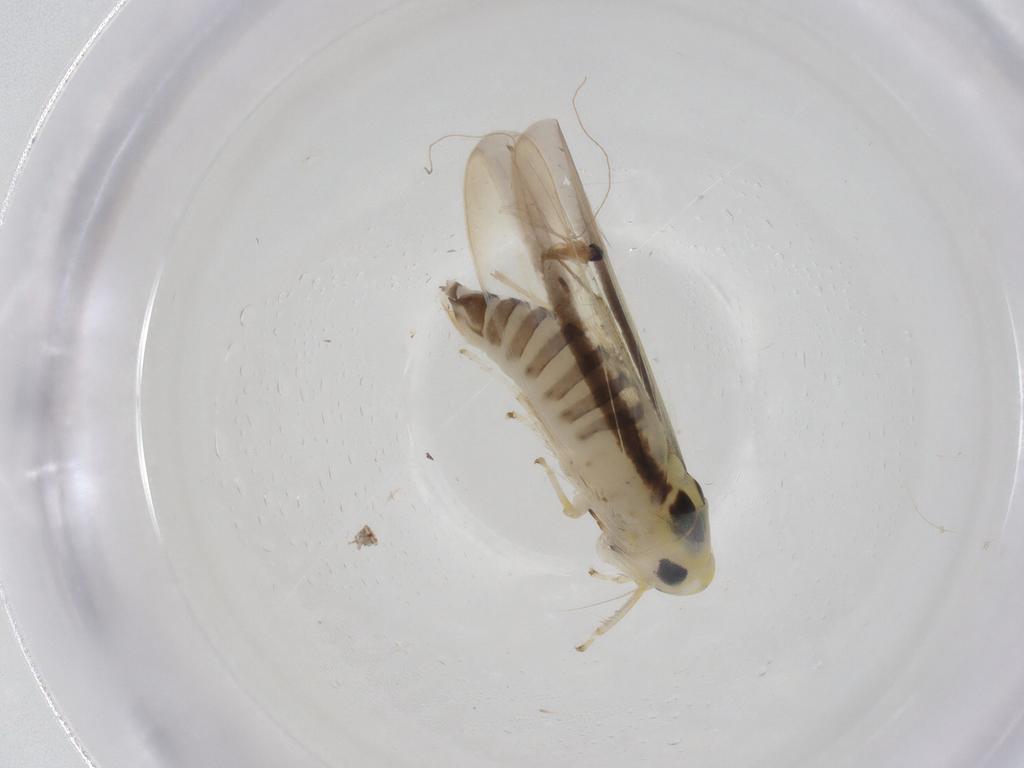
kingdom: Animalia
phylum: Arthropoda
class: Insecta
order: Hemiptera
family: Cicadellidae
